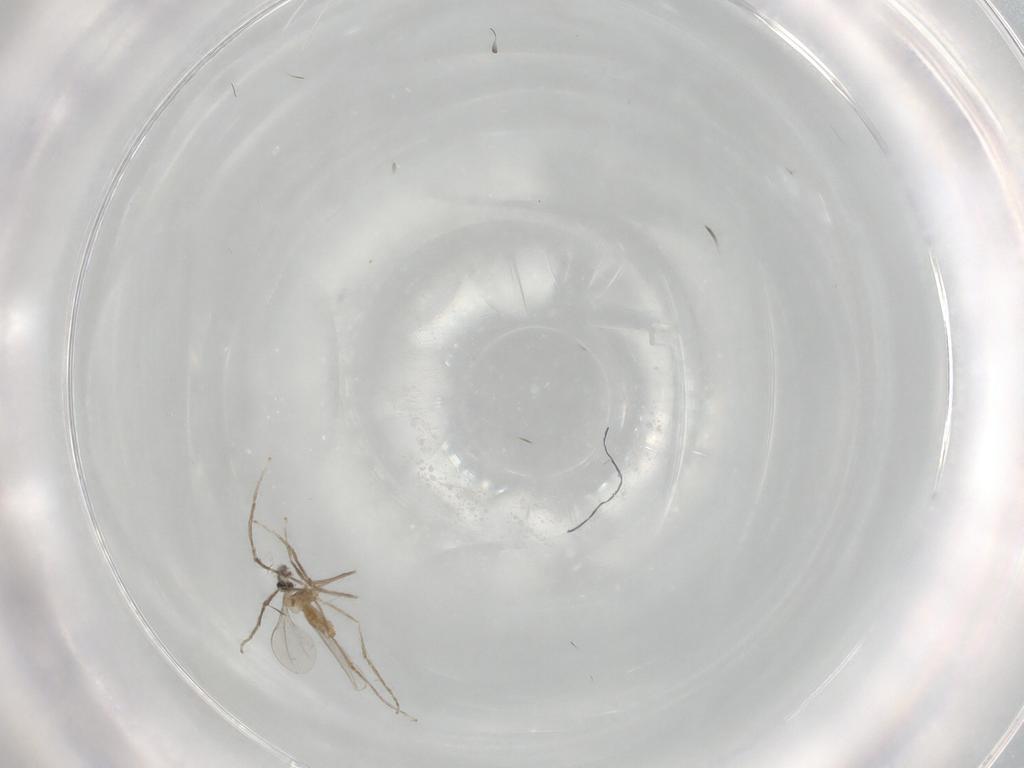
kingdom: Animalia
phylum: Arthropoda
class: Insecta
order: Diptera
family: Cecidomyiidae
